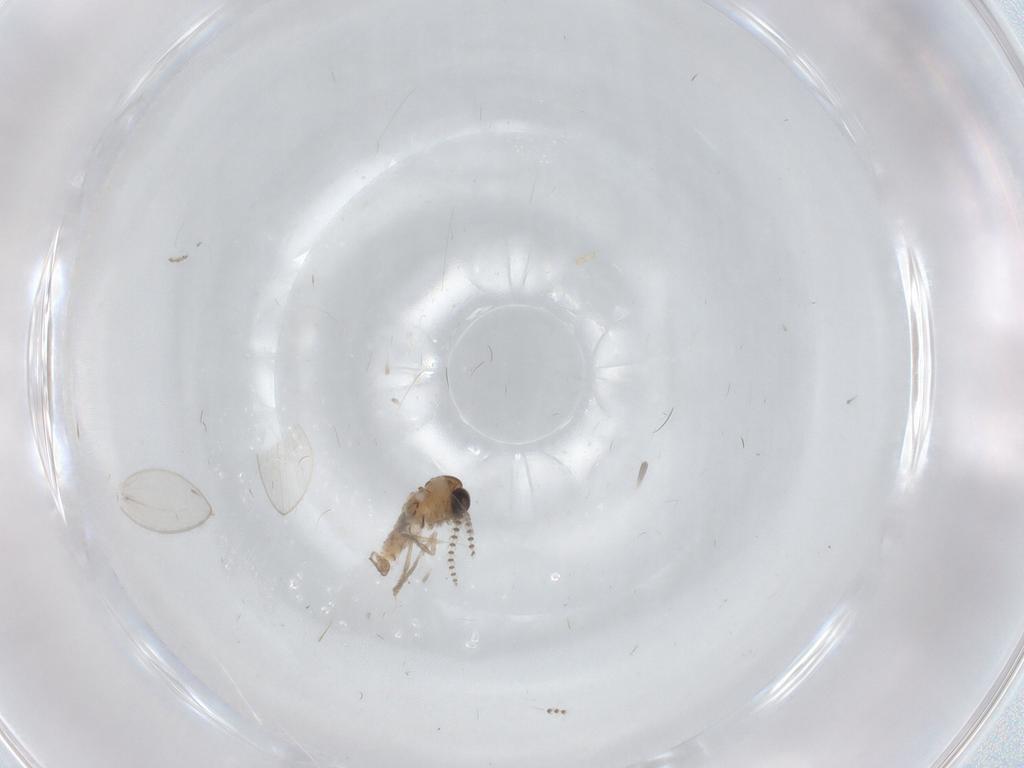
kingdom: Animalia
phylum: Arthropoda
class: Insecta
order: Diptera
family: Psychodidae
